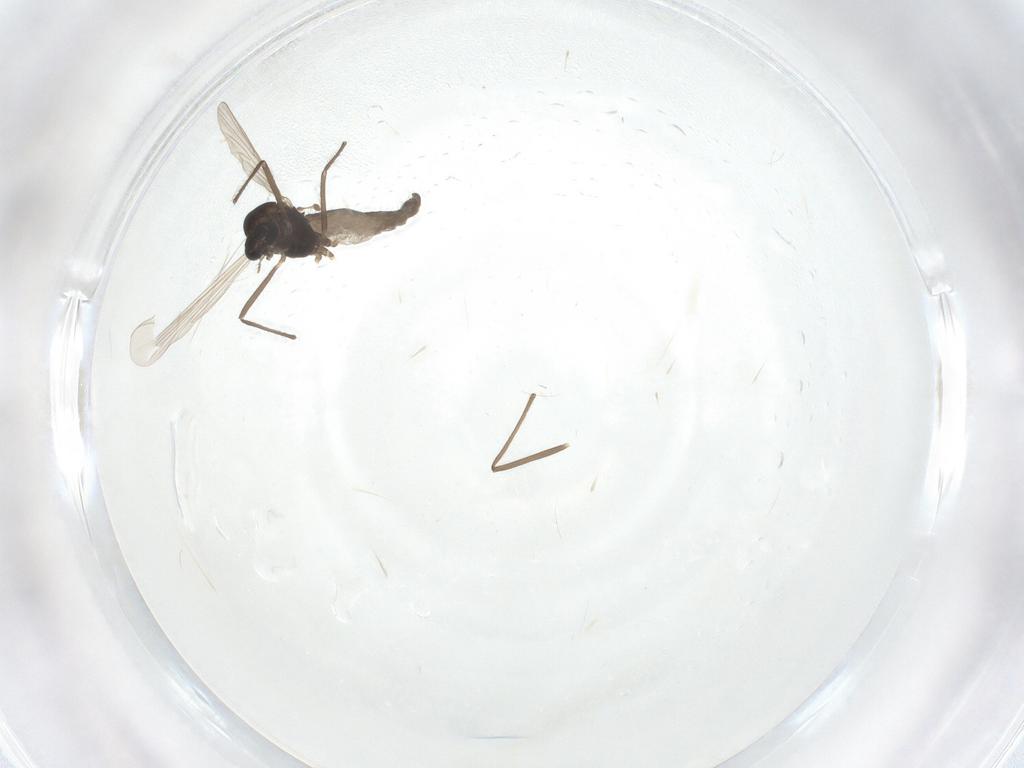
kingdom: Animalia
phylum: Arthropoda
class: Insecta
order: Diptera
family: Chironomidae
